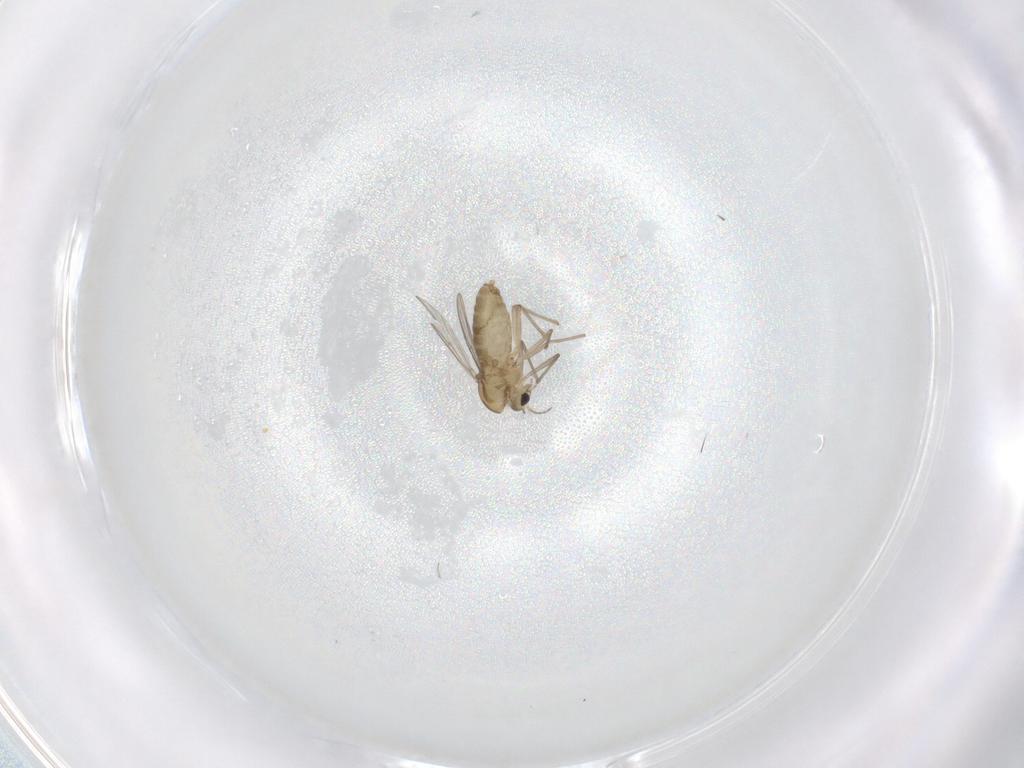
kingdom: Animalia
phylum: Arthropoda
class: Insecta
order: Diptera
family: Chironomidae
